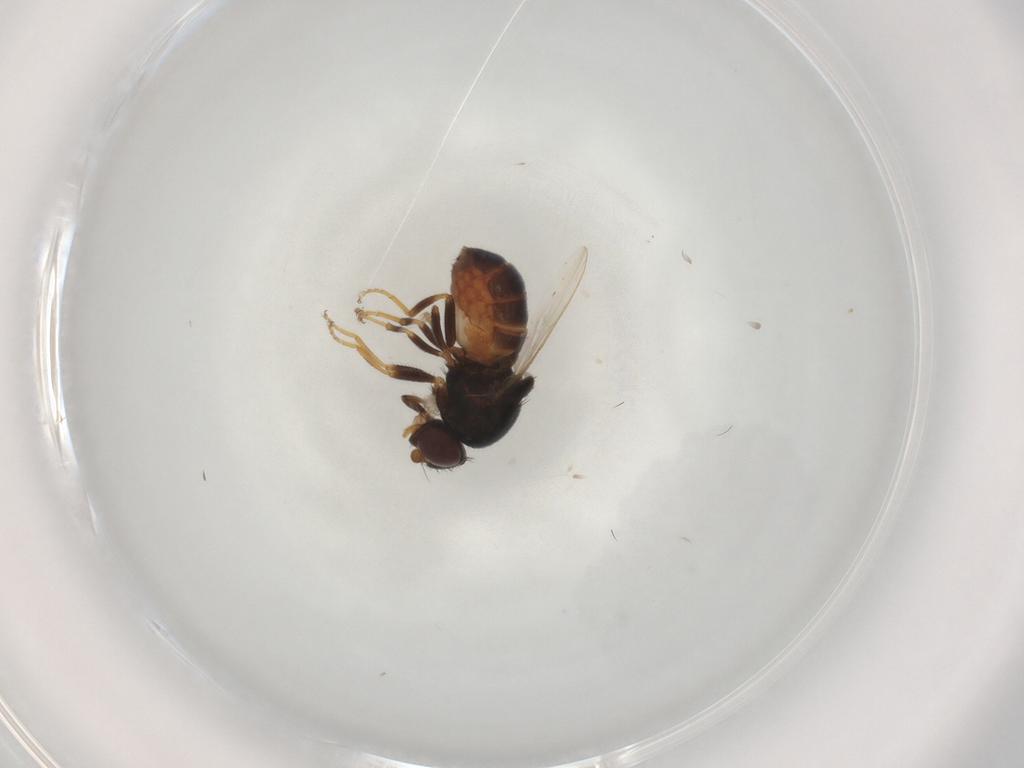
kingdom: Animalia
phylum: Arthropoda
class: Insecta
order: Diptera
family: Chloropidae
